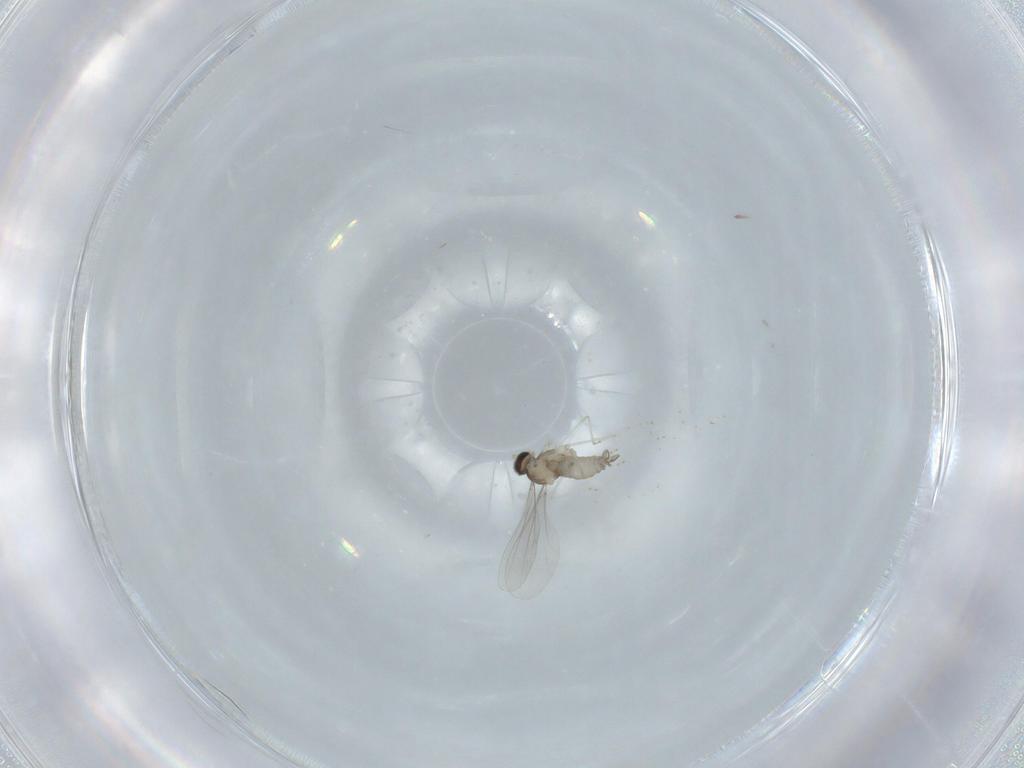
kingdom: Animalia
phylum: Arthropoda
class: Insecta
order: Diptera
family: Cecidomyiidae
